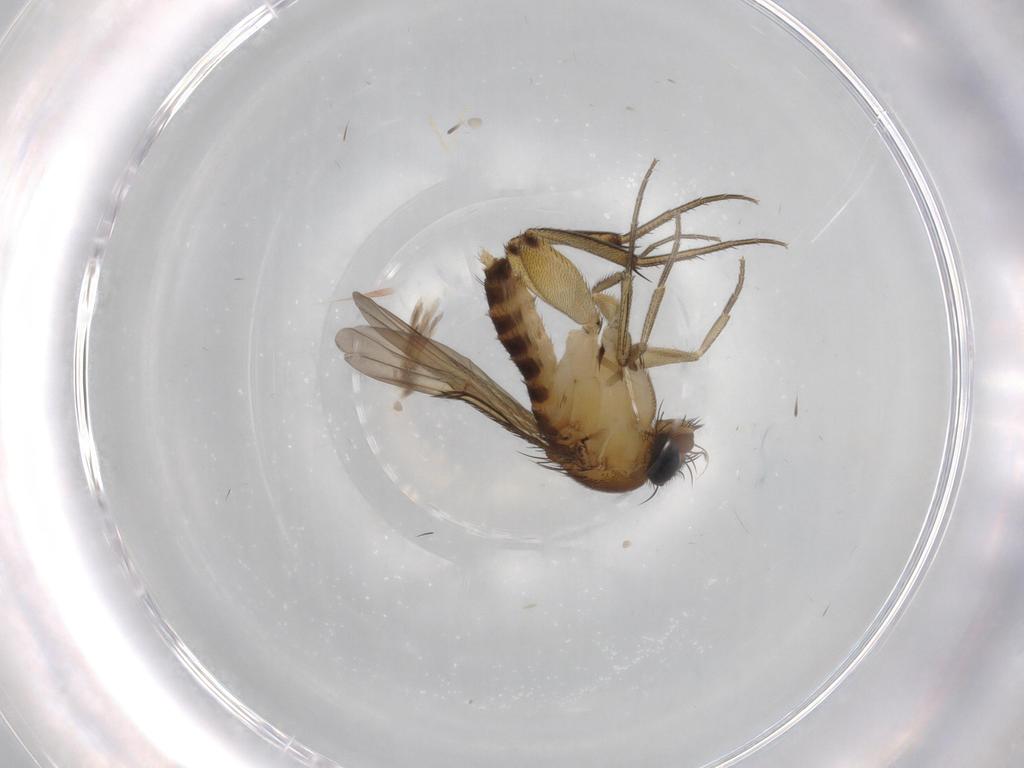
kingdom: Animalia
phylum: Arthropoda
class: Insecta
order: Diptera
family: Phoridae
